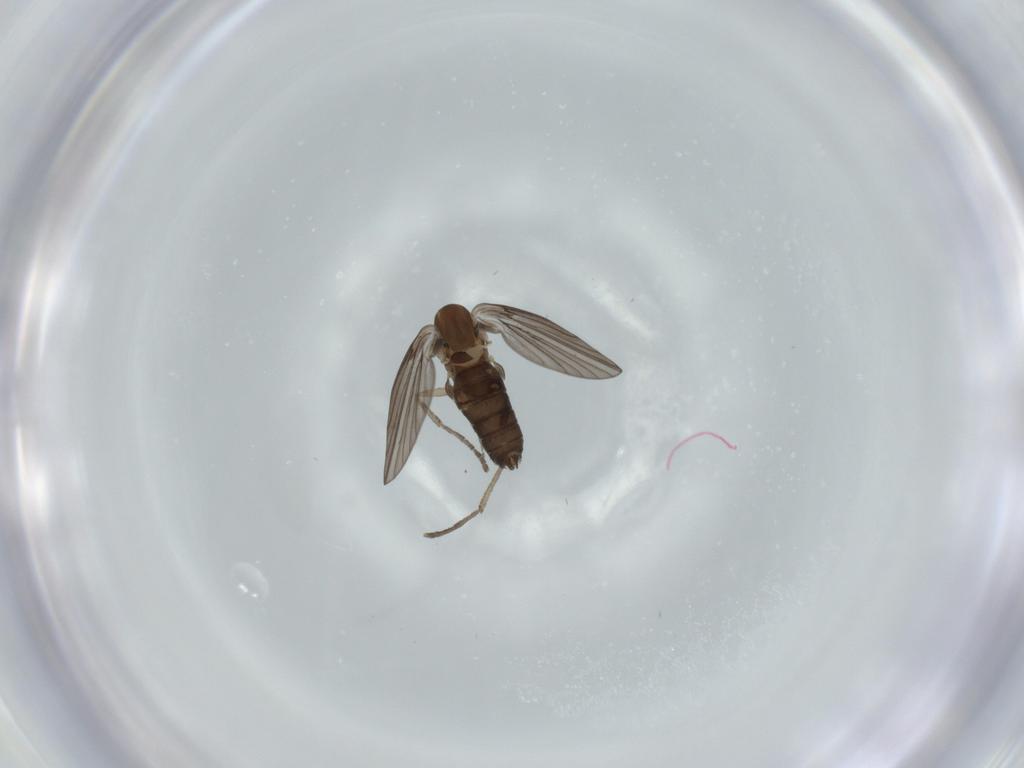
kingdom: Animalia
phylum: Arthropoda
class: Insecta
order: Diptera
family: Psychodidae
